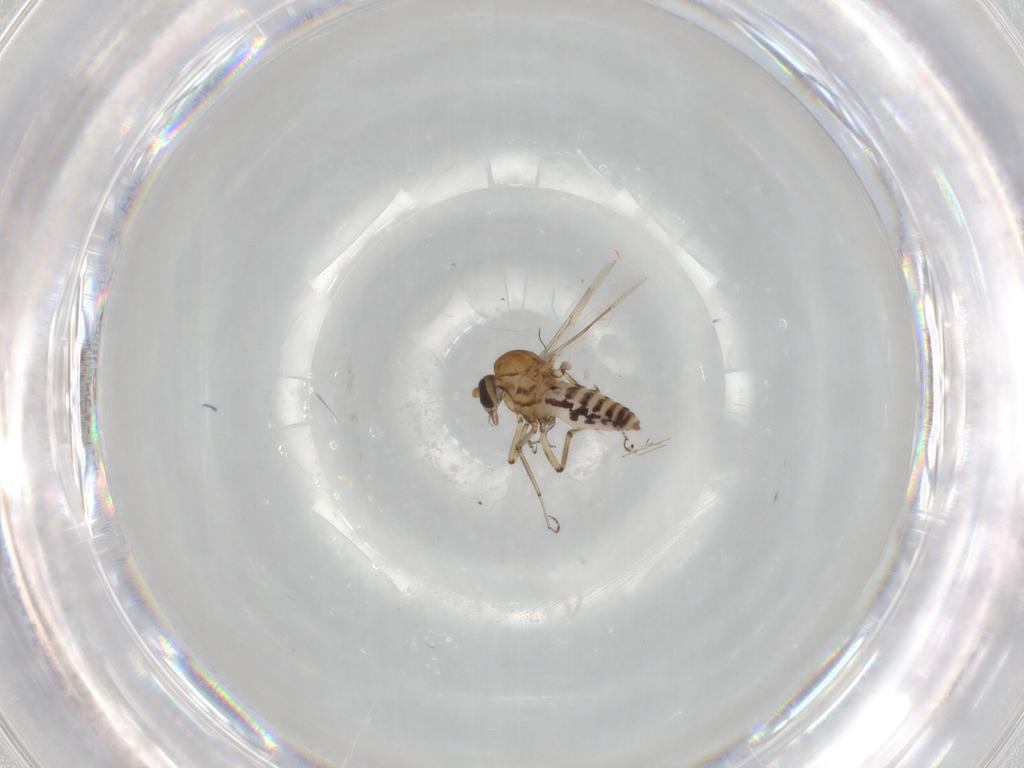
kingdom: Animalia
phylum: Arthropoda
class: Insecta
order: Diptera
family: Ceratopogonidae
